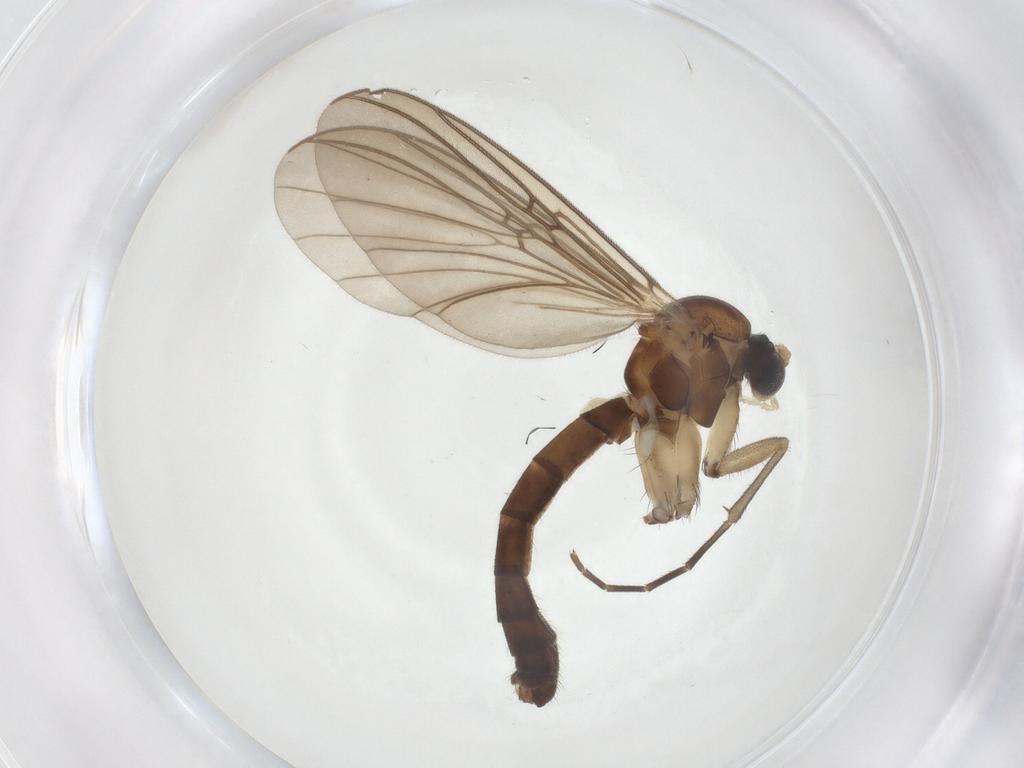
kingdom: Animalia
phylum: Arthropoda
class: Insecta
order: Diptera
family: Mycetophilidae
